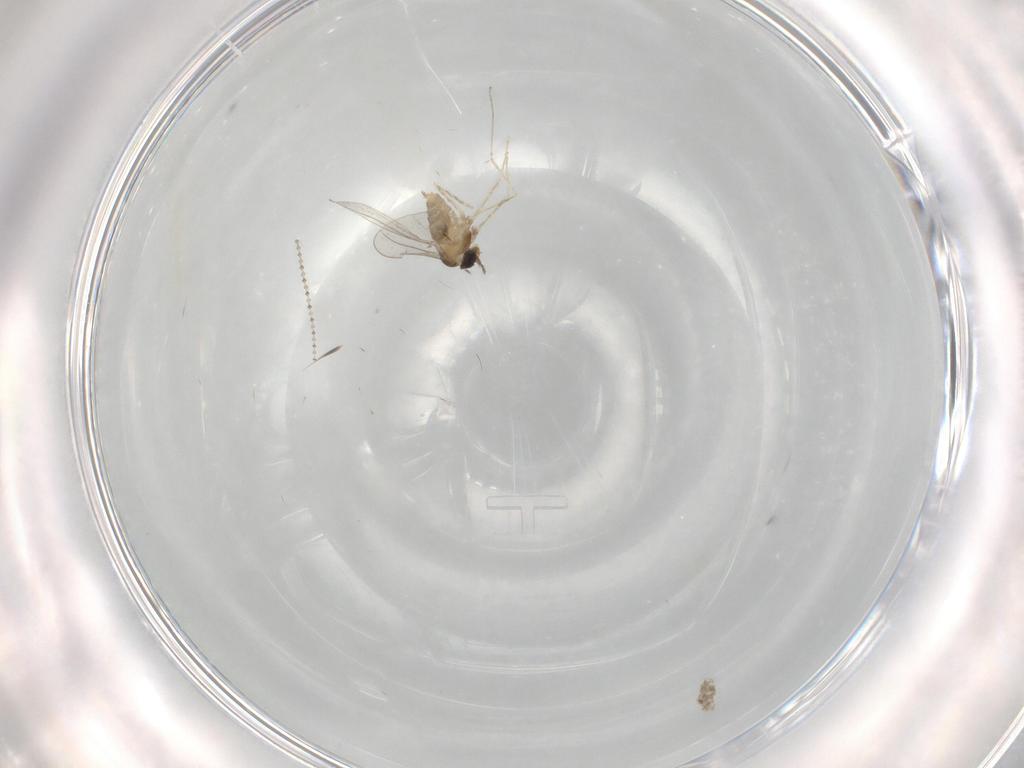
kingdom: Animalia
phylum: Arthropoda
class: Insecta
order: Diptera
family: Cecidomyiidae
